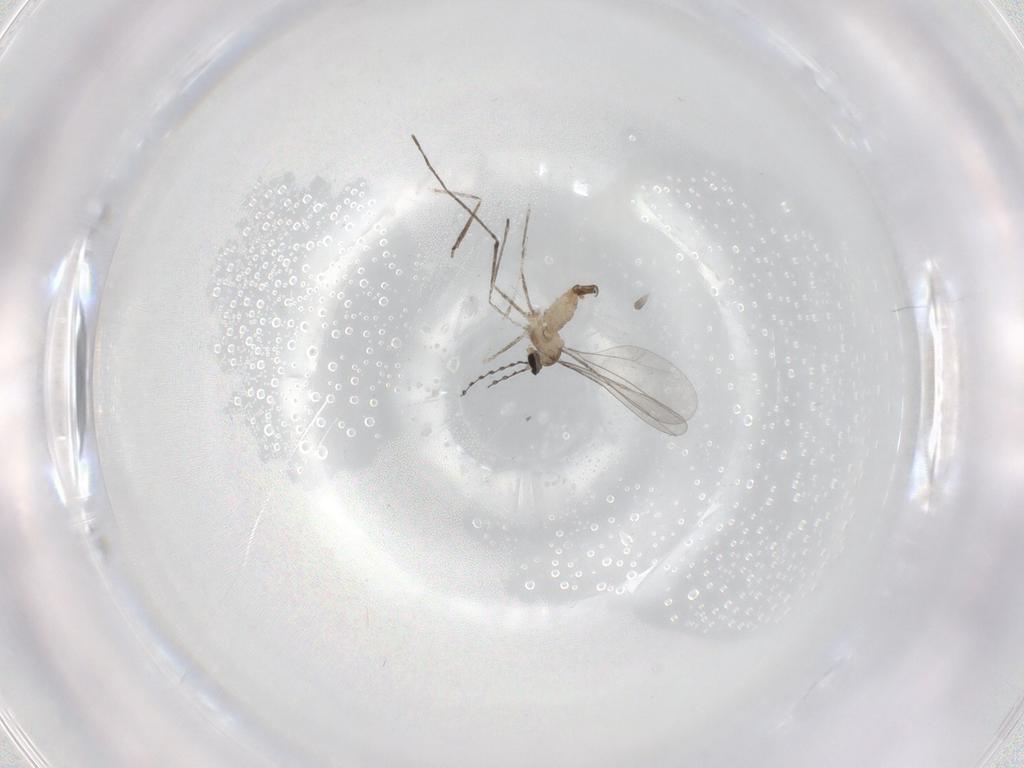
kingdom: Animalia
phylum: Arthropoda
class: Insecta
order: Diptera
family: Cecidomyiidae
